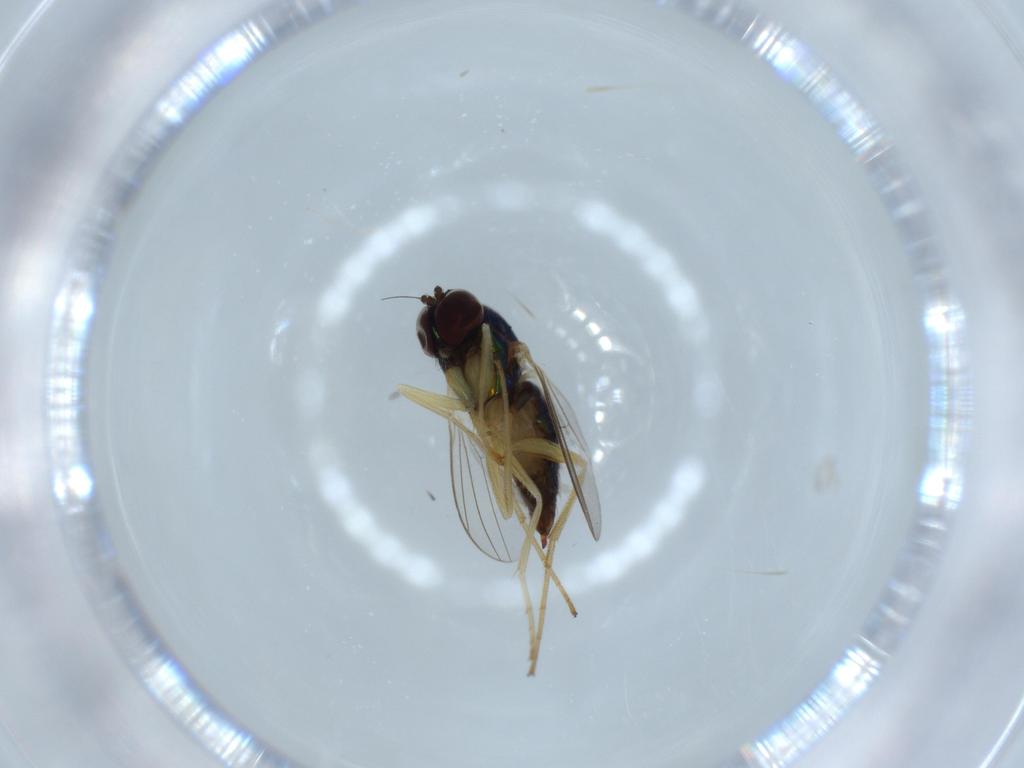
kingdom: Animalia
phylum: Arthropoda
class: Insecta
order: Diptera
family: Dolichopodidae
